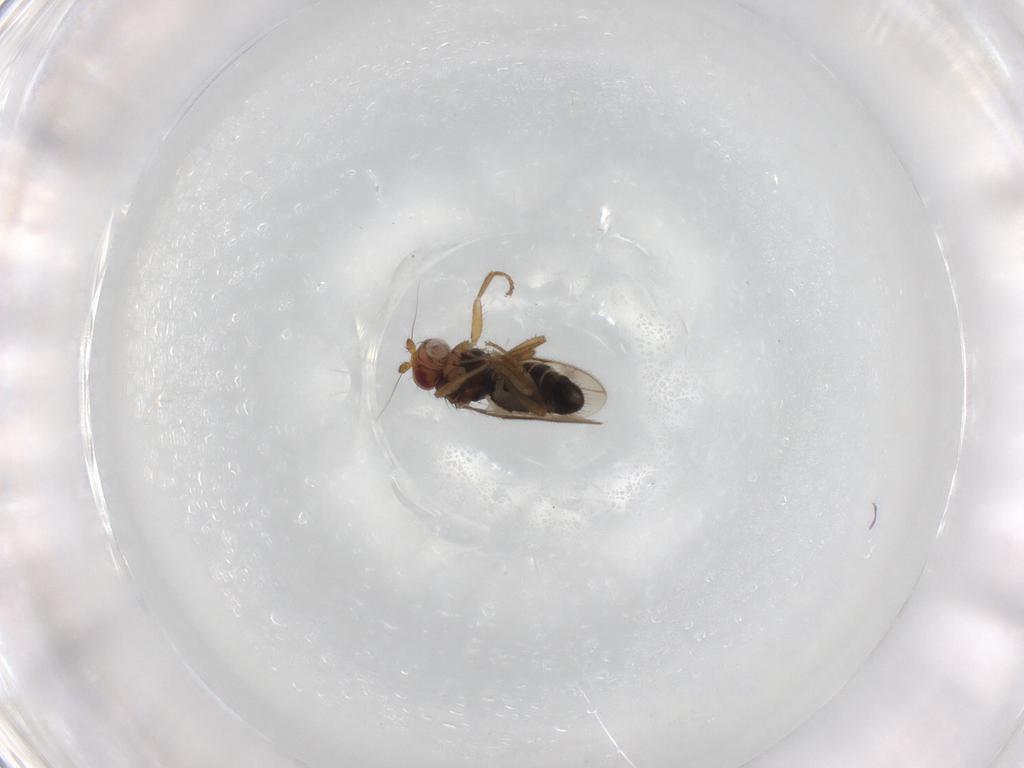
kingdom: Animalia
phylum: Arthropoda
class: Insecta
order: Diptera
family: Sphaeroceridae
